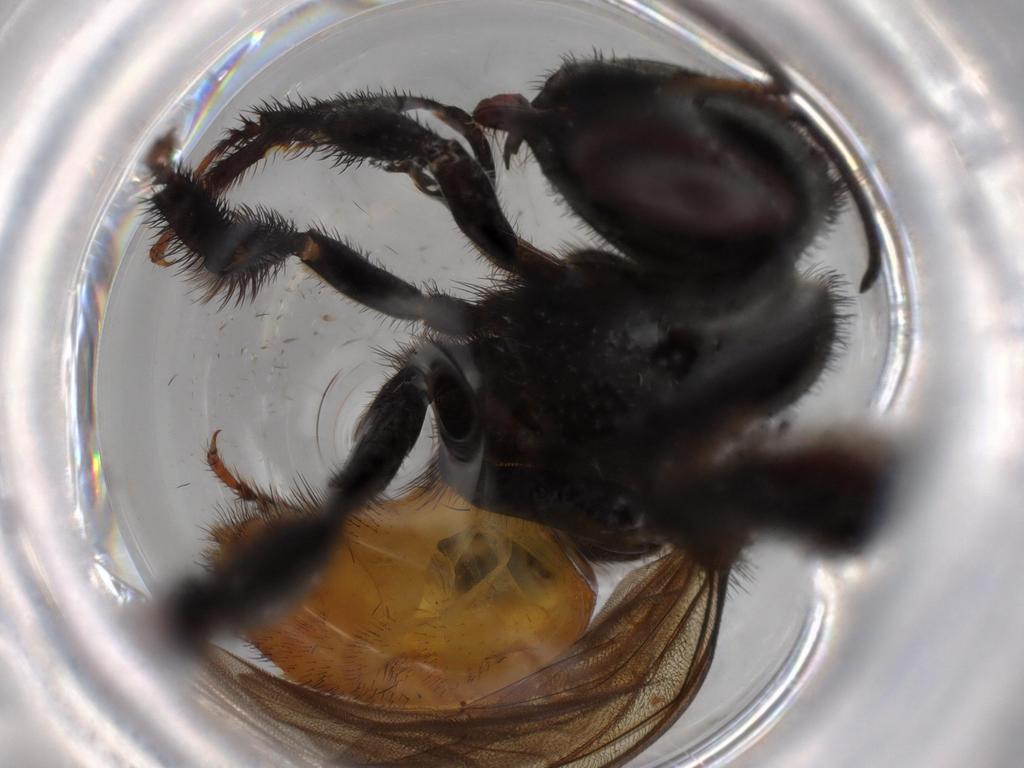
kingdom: Animalia
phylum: Arthropoda
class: Insecta
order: Hymenoptera
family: Apidae
